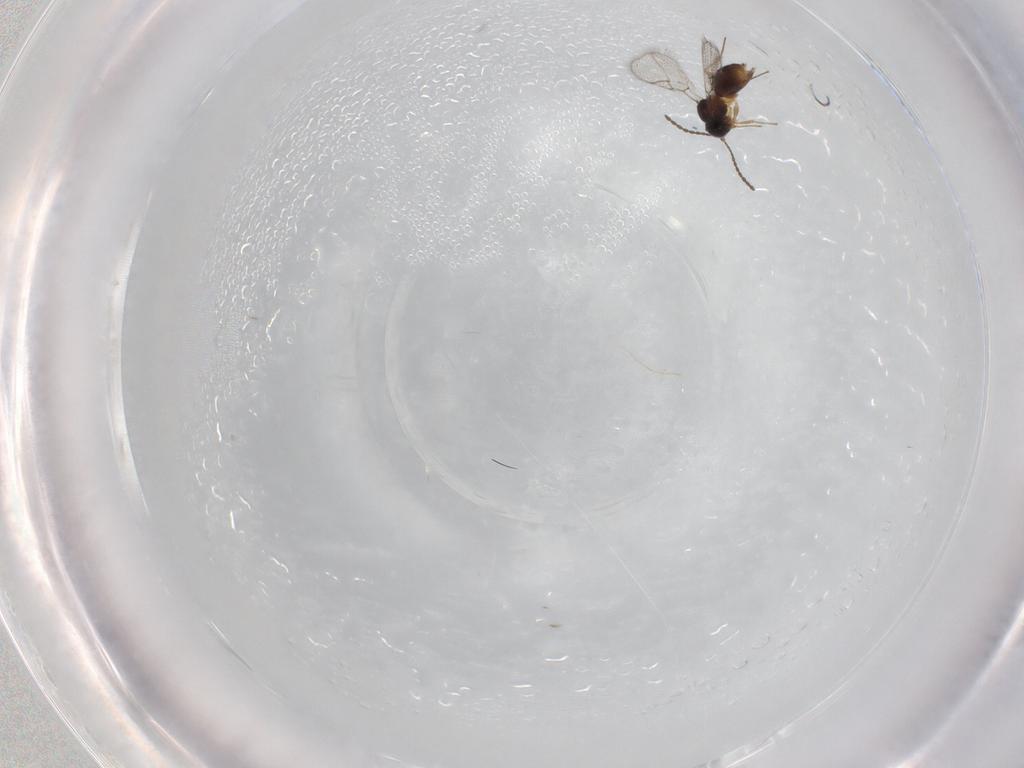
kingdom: Animalia
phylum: Arthropoda
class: Insecta
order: Hymenoptera
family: Figitidae
